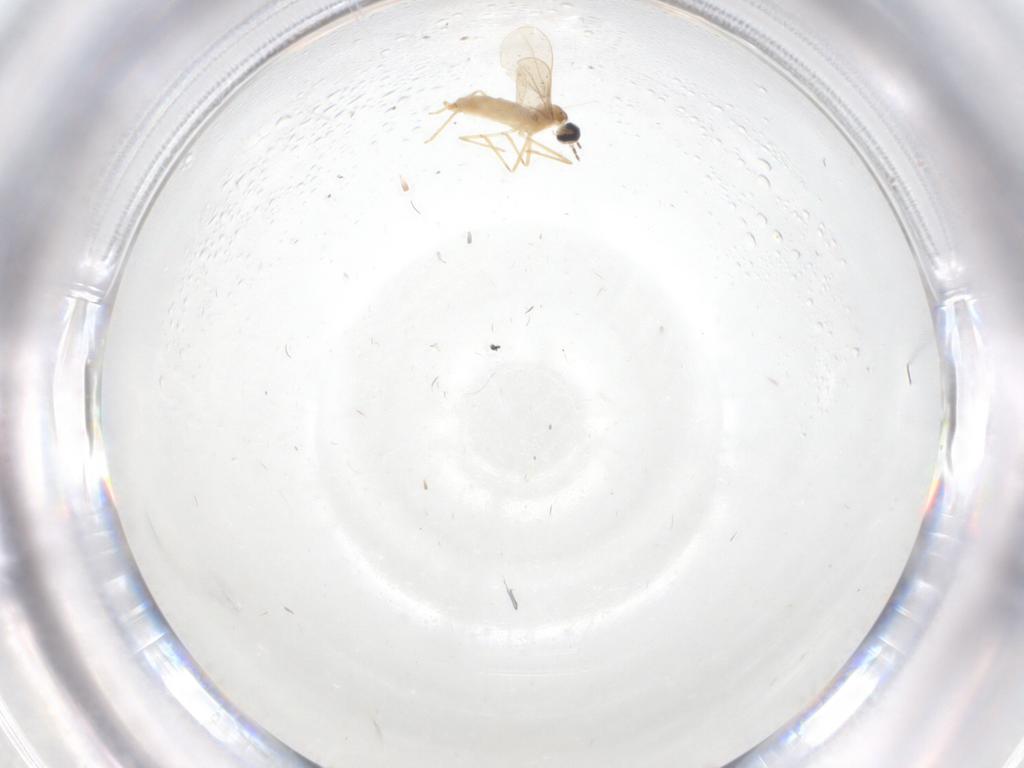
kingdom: Animalia
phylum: Arthropoda
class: Insecta
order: Diptera
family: Cecidomyiidae
